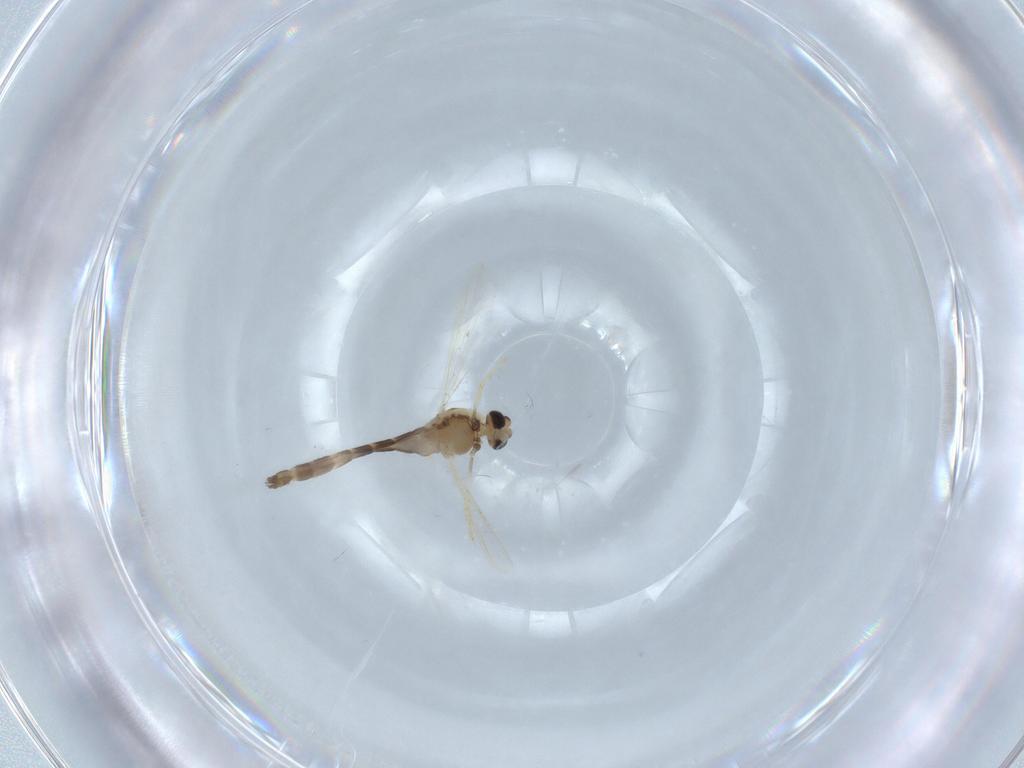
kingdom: Animalia
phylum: Arthropoda
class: Insecta
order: Diptera
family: Chironomidae
